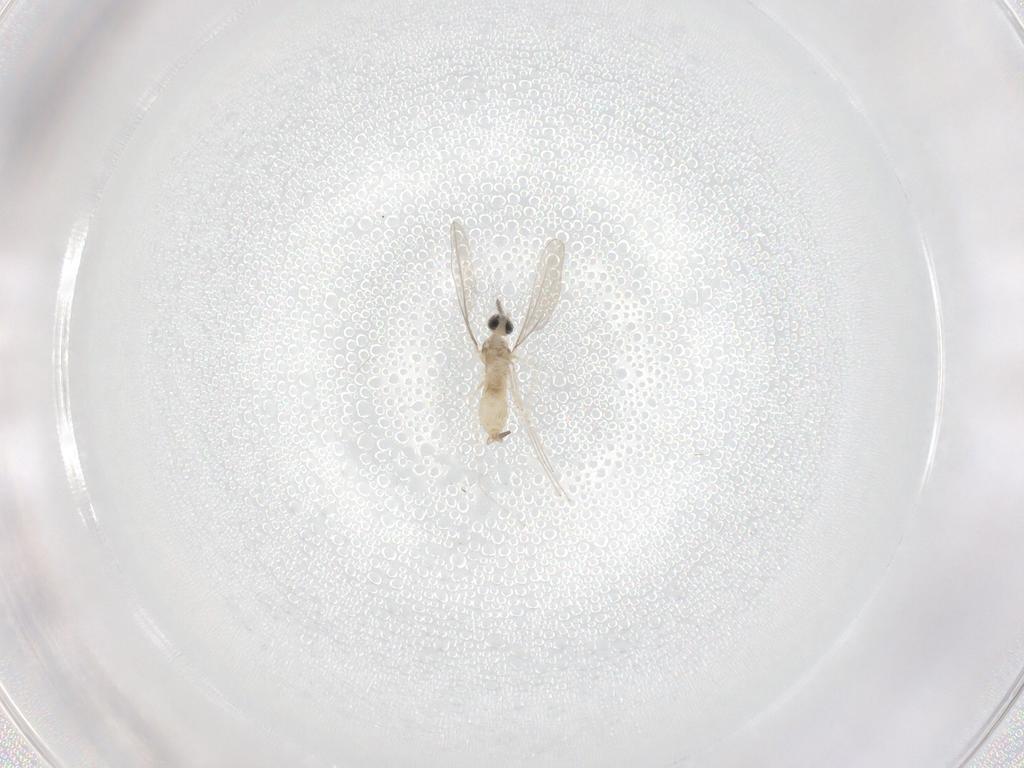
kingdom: Animalia
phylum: Arthropoda
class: Insecta
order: Diptera
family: Cecidomyiidae
